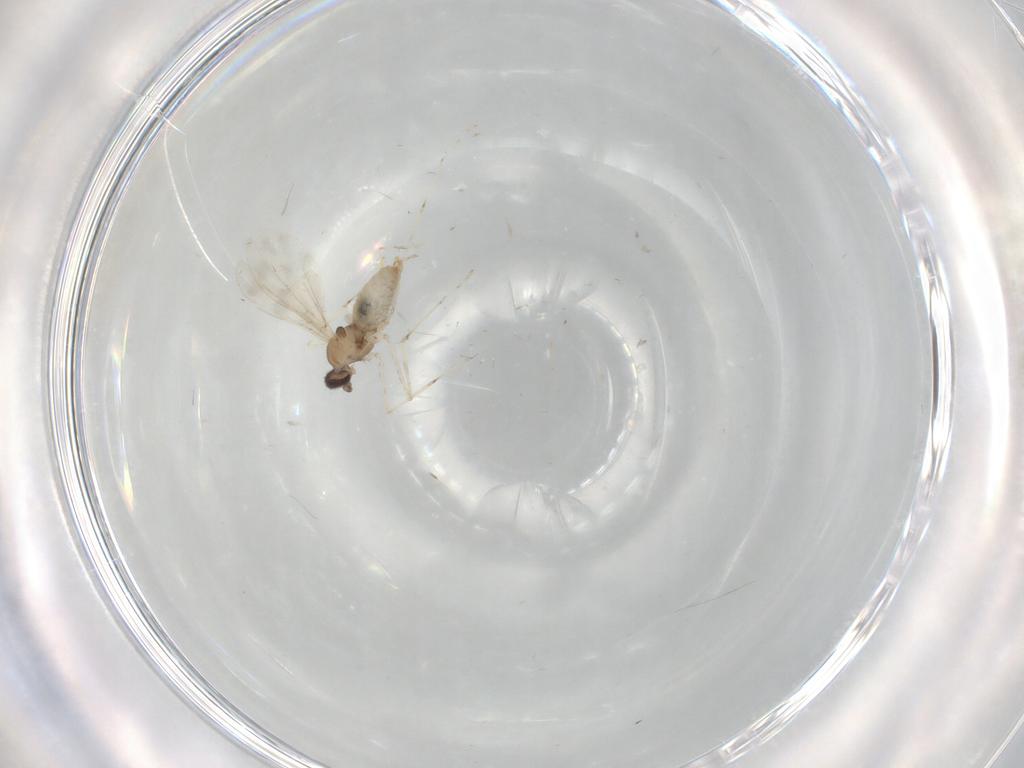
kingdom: Animalia
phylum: Arthropoda
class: Insecta
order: Diptera
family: Cecidomyiidae
